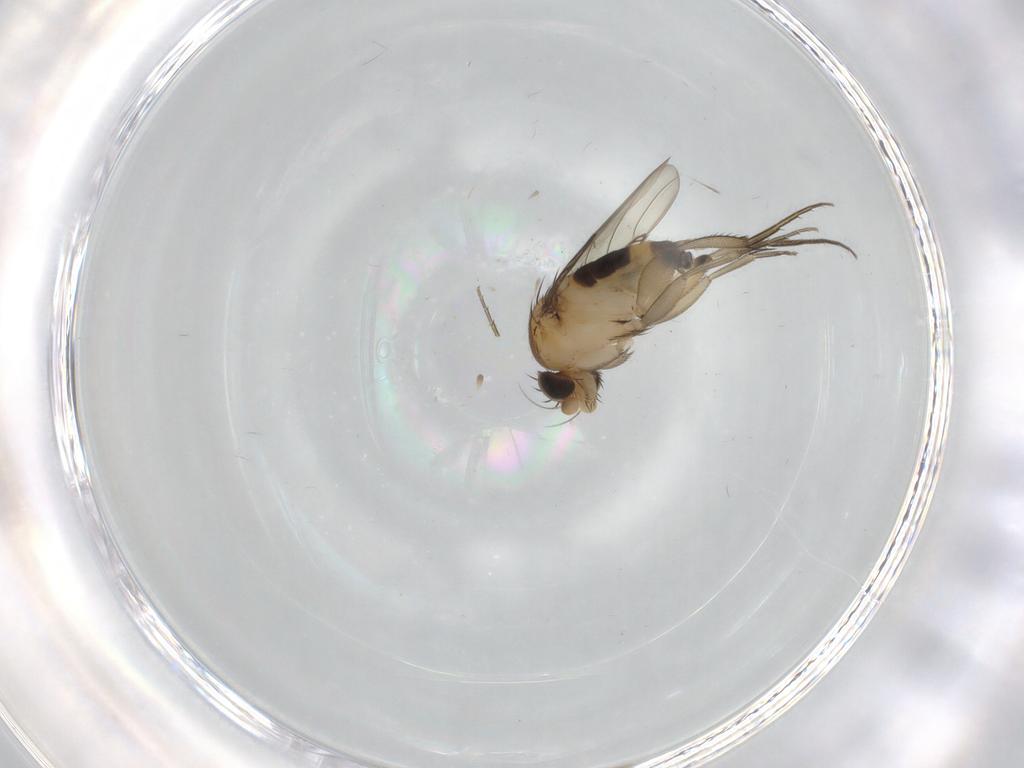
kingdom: Animalia
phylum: Arthropoda
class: Insecta
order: Diptera
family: Phoridae
